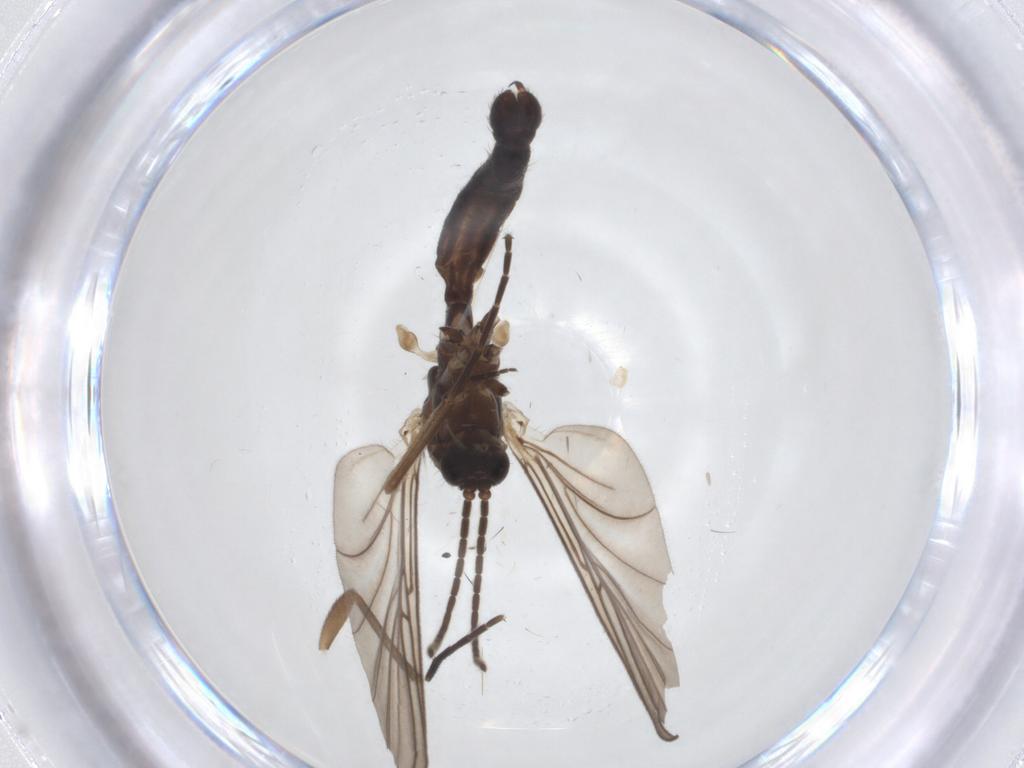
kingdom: Animalia
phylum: Arthropoda
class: Insecta
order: Diptera
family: Mycetophilidae
